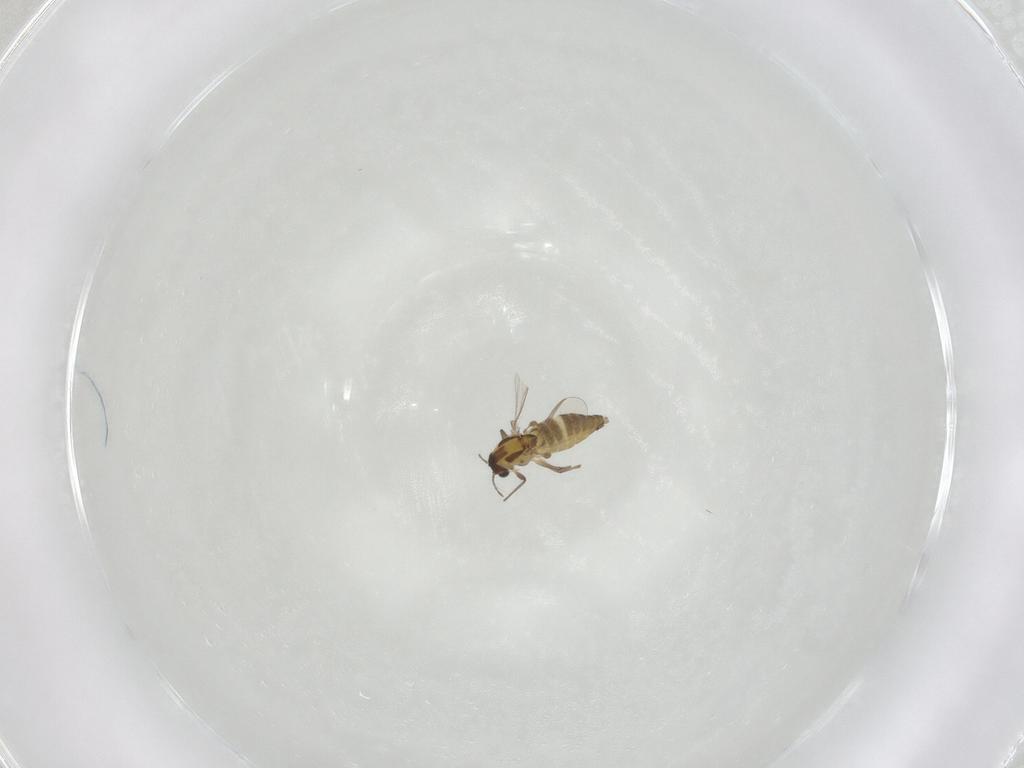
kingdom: Animalia
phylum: Arthropoda
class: Insecta
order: Diptera
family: Chironomidae
